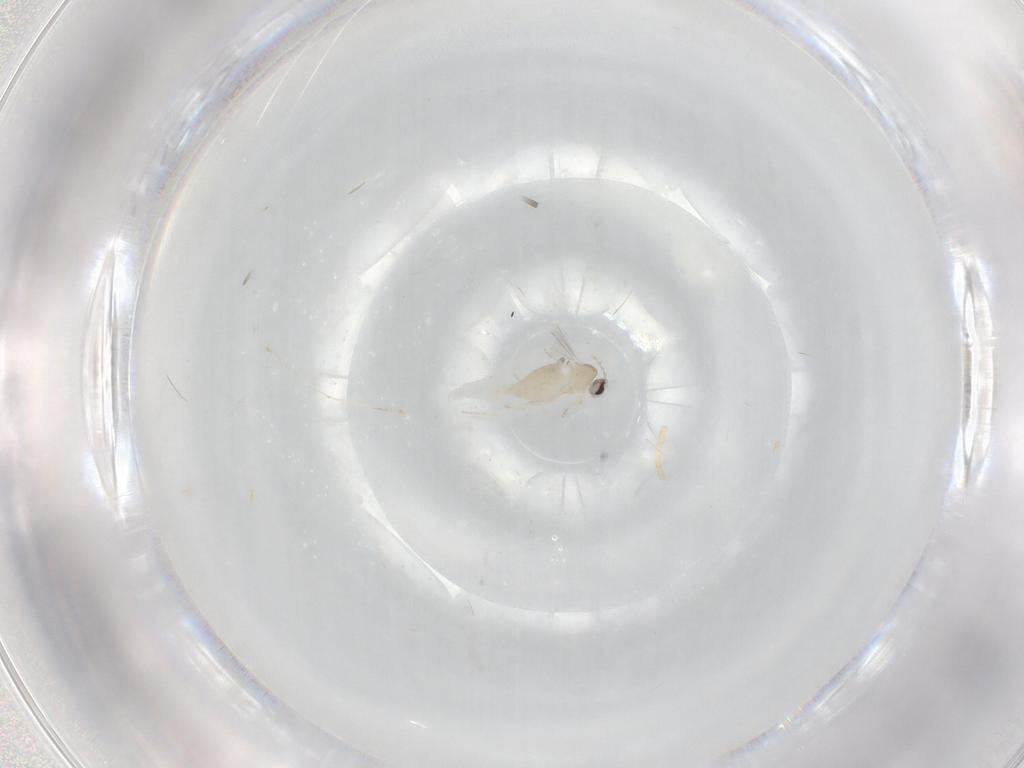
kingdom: Animalia
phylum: Arthropoda
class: Insecta
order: Diptera
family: Cecidomyiidae
